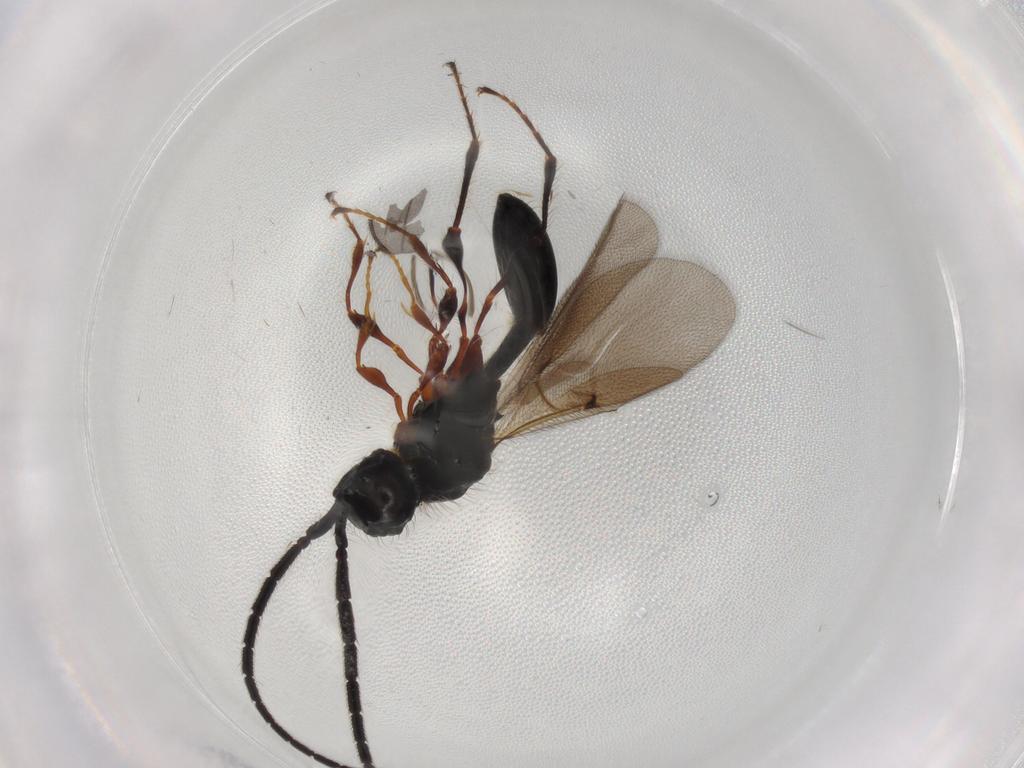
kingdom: Animalia
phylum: Arthropoda
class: Insecta
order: Hymenoptera
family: Diapriidae
